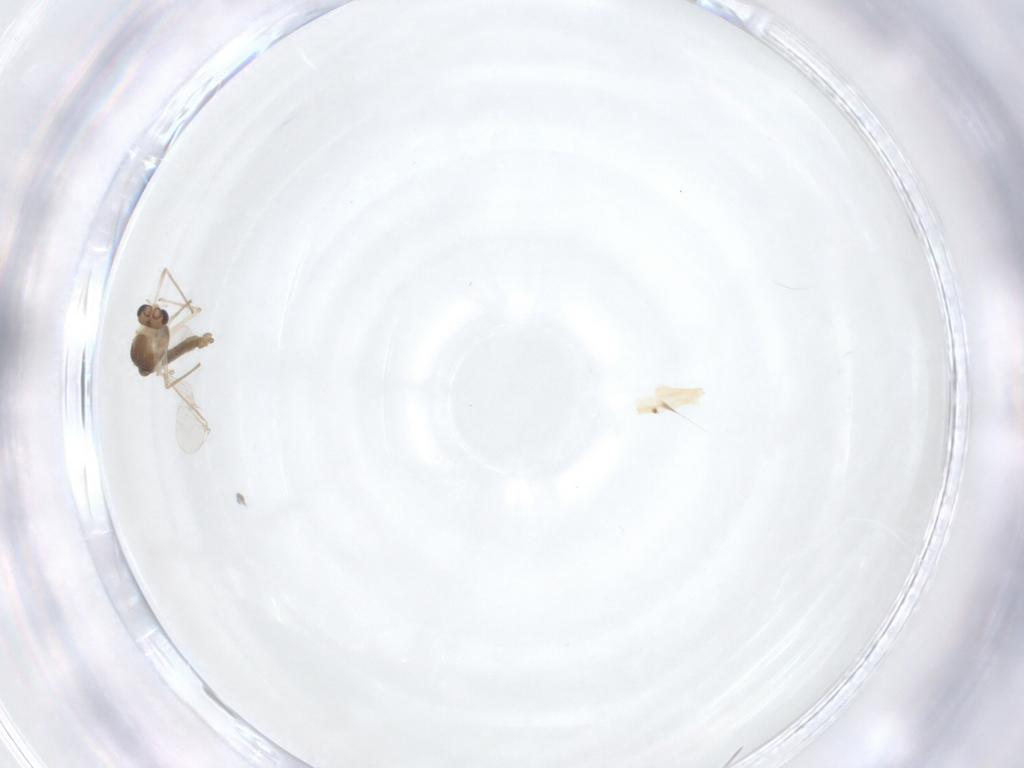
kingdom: Animalia
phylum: Arthropoda
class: Insecta
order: Diptera
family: Chironomidae
